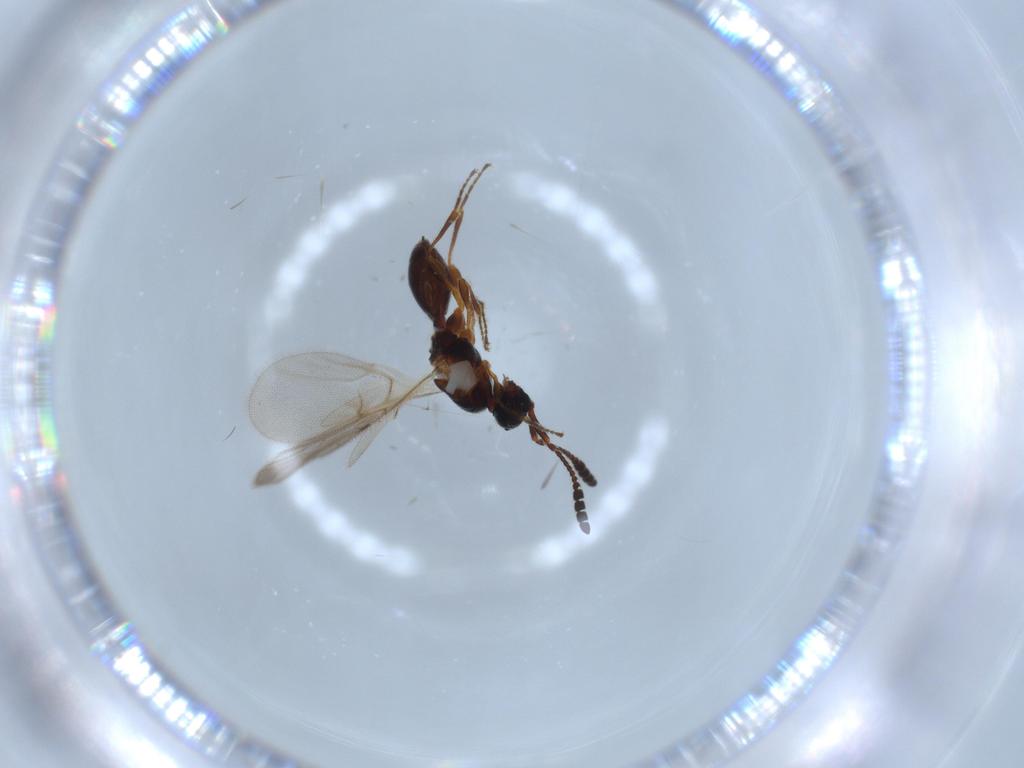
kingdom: Animalia
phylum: Arthropoda
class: Insecta
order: Hymenoptera
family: Diapriidae
